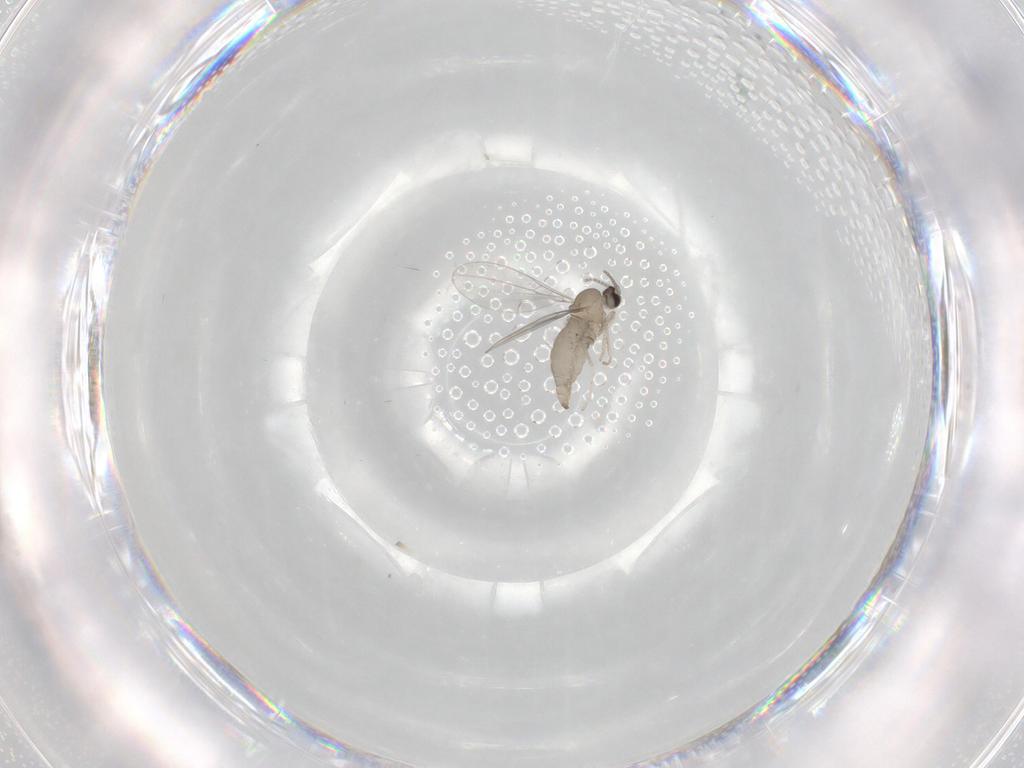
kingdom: Animalia
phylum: Arthropoda
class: Insecta
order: Diptera
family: Cecidomyiidae
